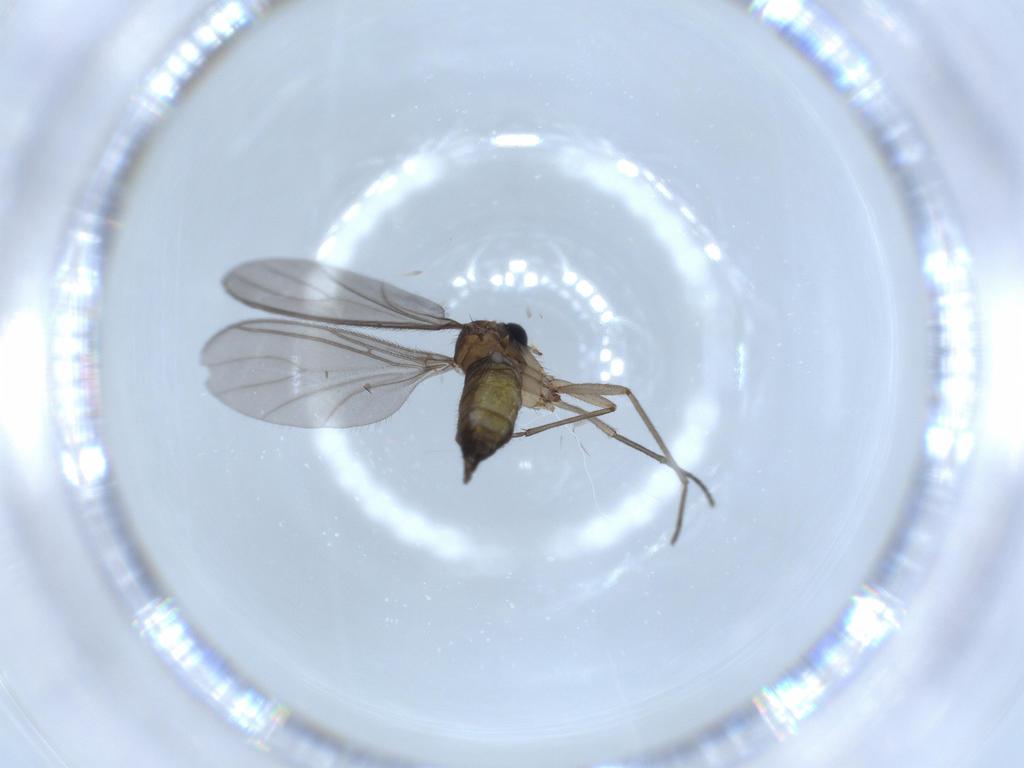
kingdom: Animalia
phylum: Arthropoda
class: Insecta
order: Diptera
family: Sciaridae
